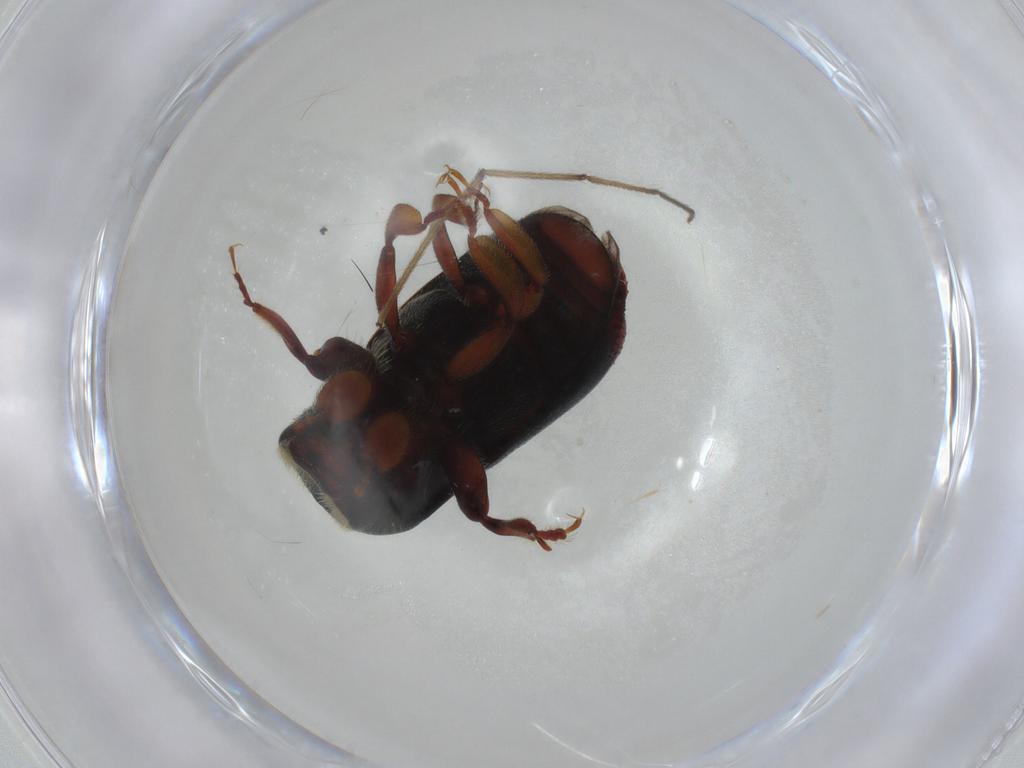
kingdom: Animalia
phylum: Arthropoda
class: Insecta
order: Coleoptera
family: Curculionidae
